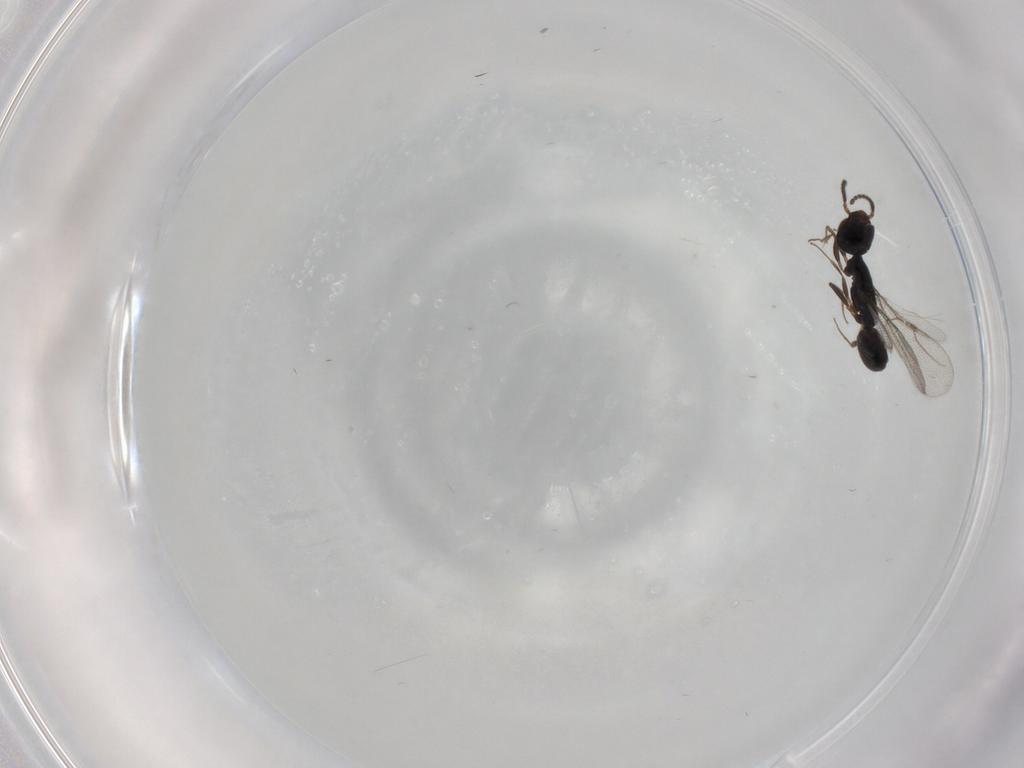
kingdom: Animalia
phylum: Arthropoda
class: Insecta
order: Hymenoptera
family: Bethylidae
